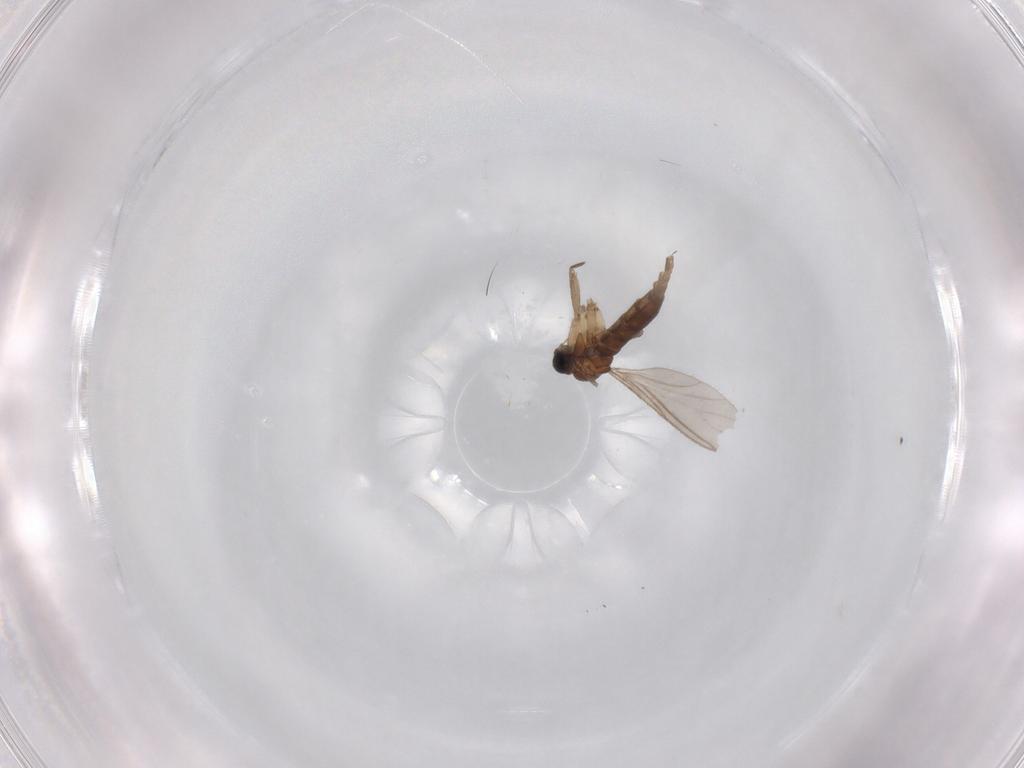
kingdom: Animalia
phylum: Arthropoda
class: Insecta
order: Diptera
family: Sciaridae
